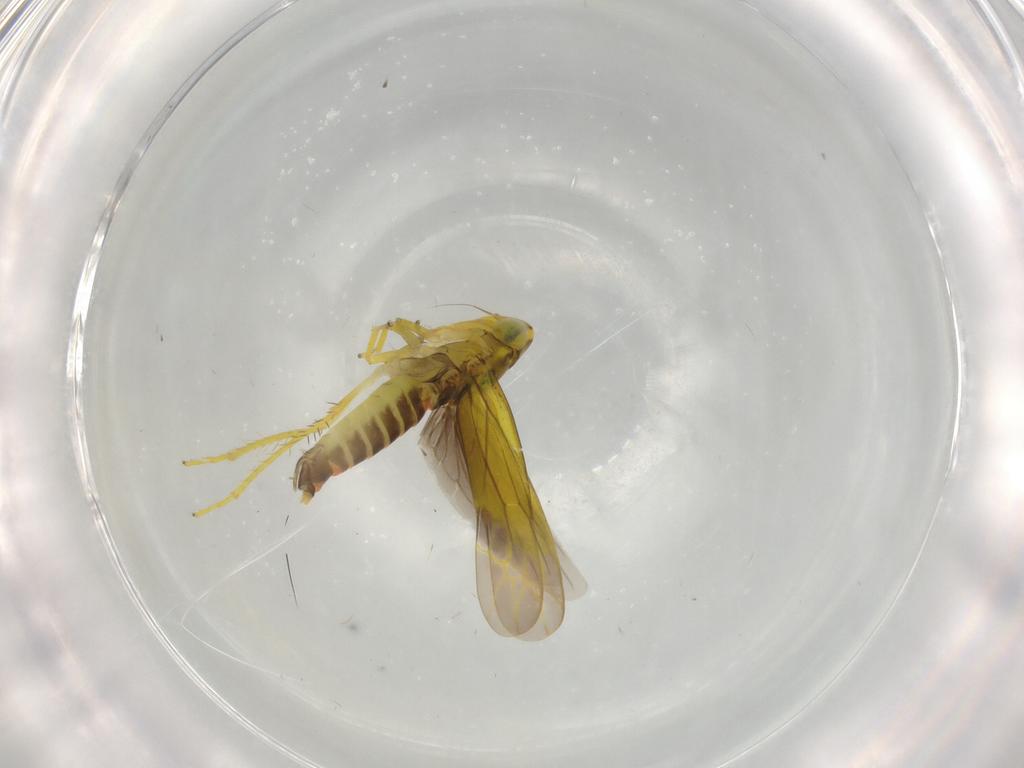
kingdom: Animalia
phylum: Arthropoda
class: Insecta
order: Hemiptera
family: Cicadellidae
